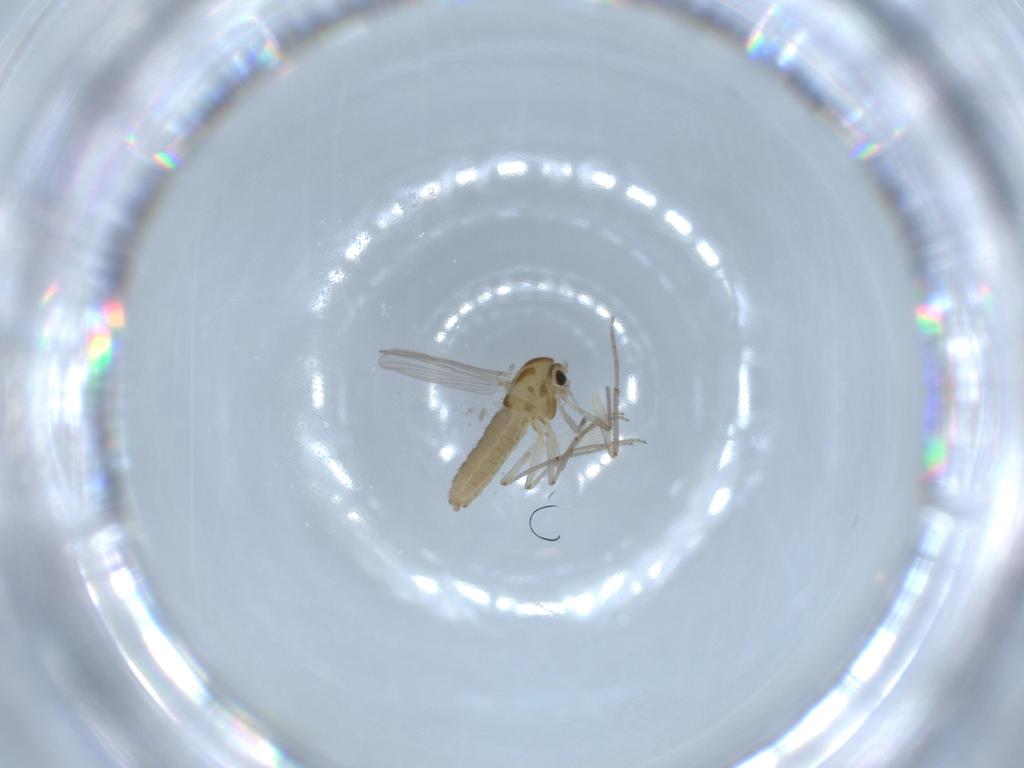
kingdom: Animalia
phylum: Arthropoda
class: Insecta
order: Diptera
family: Chironomidae
